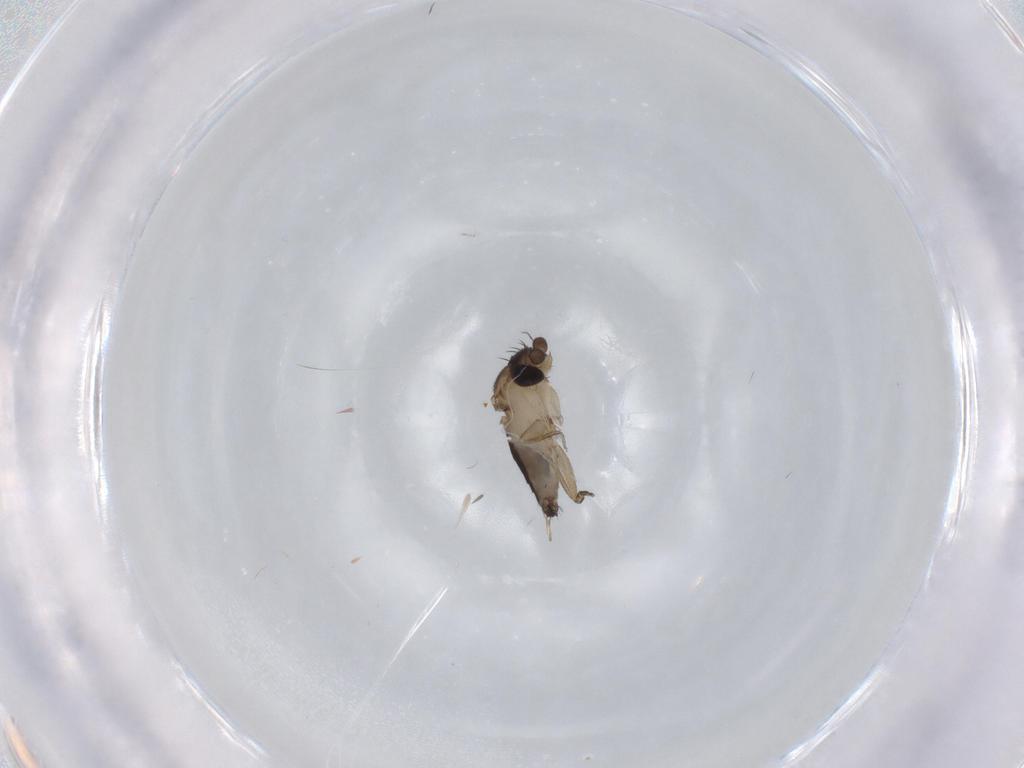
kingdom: Animalia
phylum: Arthropoda
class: Insecta
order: Diptera
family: Phoridae
